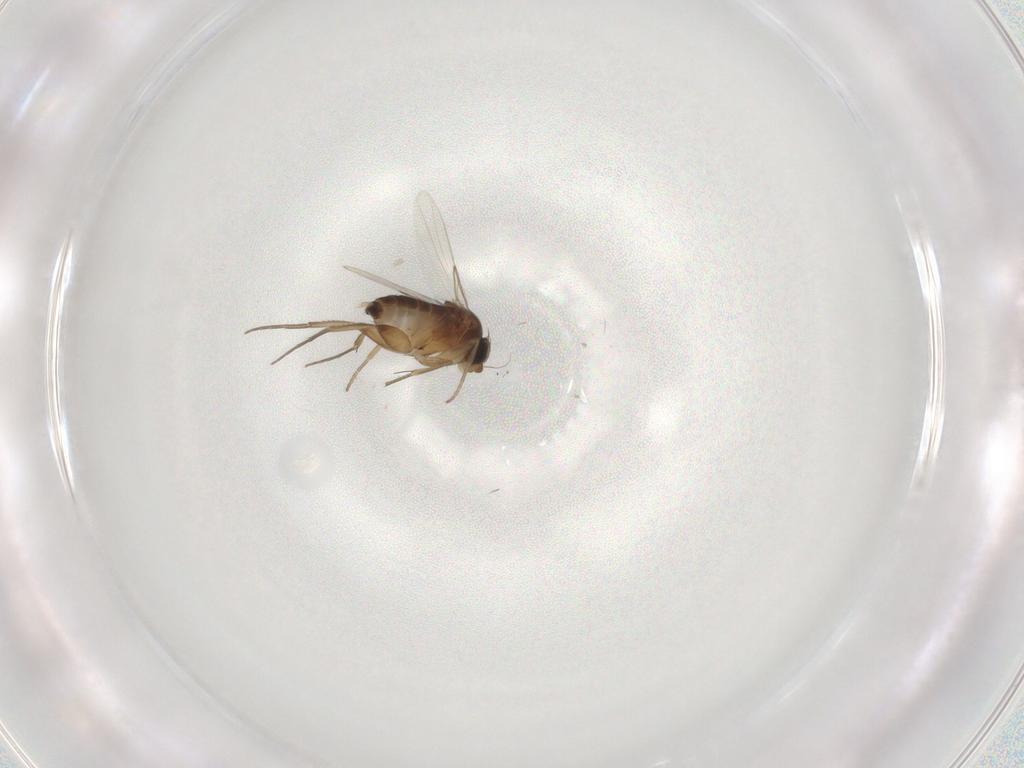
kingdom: Animalia
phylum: Arthropoda
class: Insecta
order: Diptera
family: Phoridae
